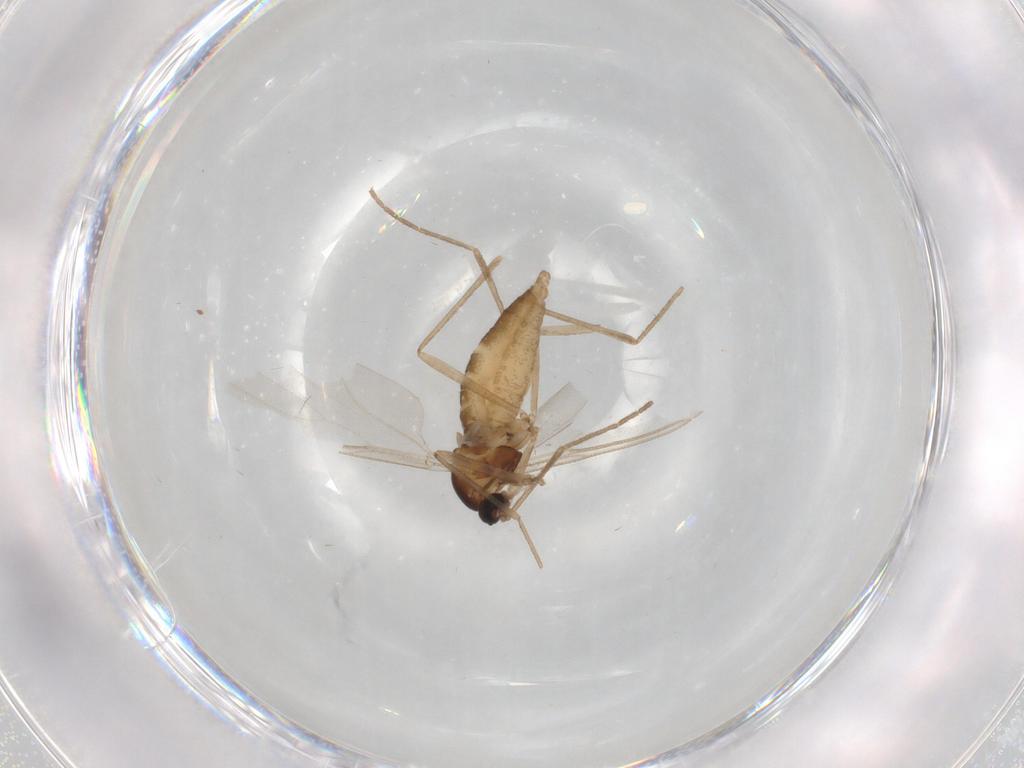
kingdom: Animalia
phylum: Arthropoda
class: Insecta
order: Diptera
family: Cecidomyiidae
